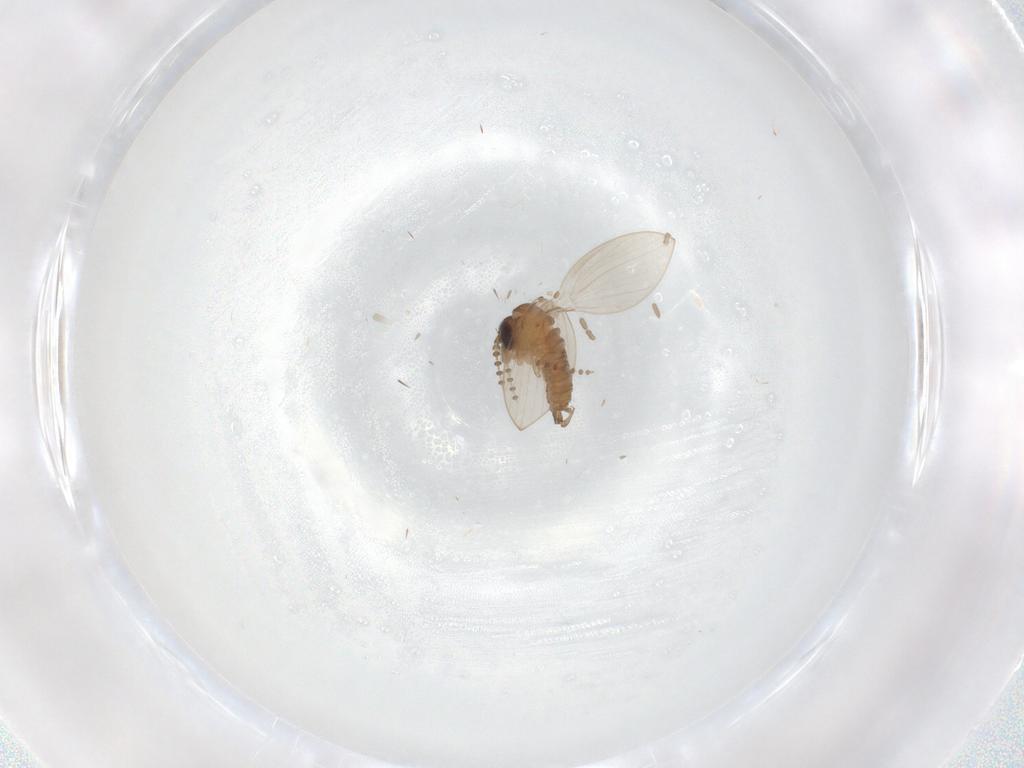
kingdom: Animalia
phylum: Arthropoda
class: Insecta
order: Diptera
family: Psychodidae
